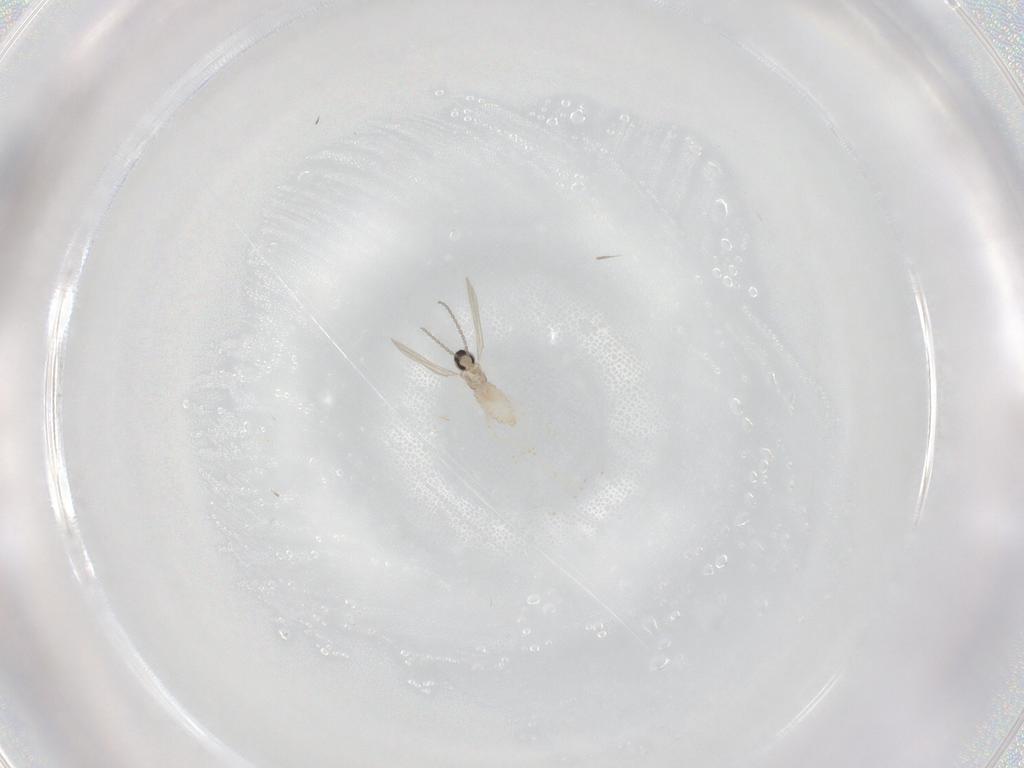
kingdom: Animalia
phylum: Arthropoda
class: Insecta
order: Diptera
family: Cecidomyiidae
